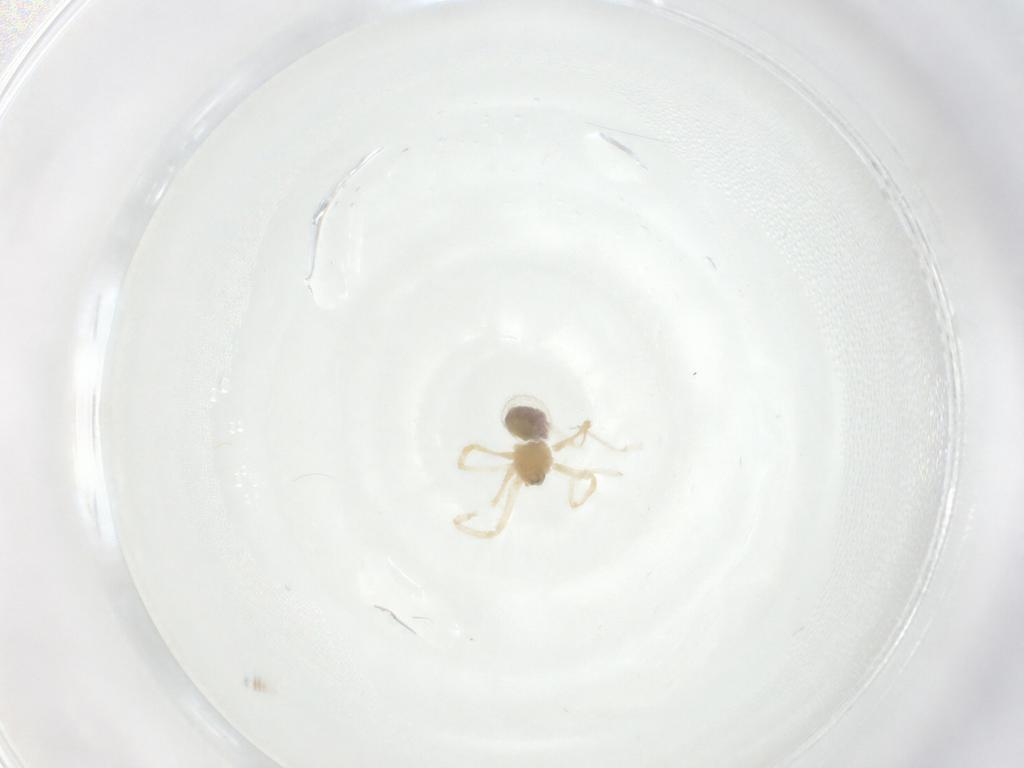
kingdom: Animalia
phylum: Arthropoda
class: Arachnida
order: Araneae
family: Pholcidae
